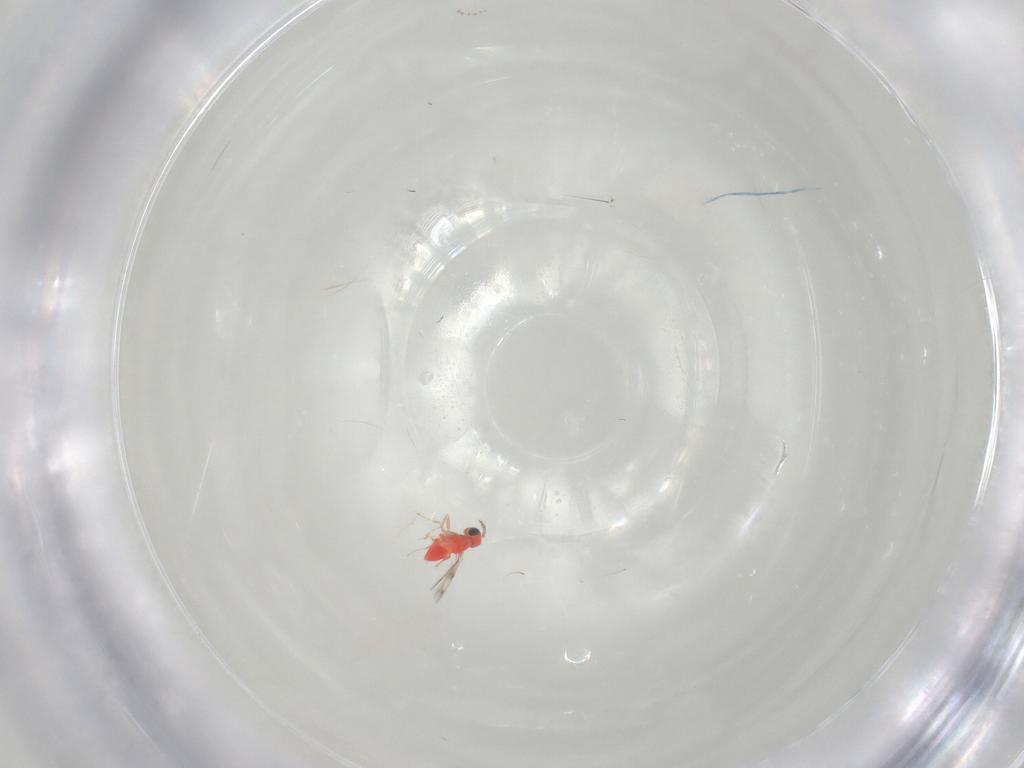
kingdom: Animalia
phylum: Arthropoda
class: Insecta
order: Hymenoptera
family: Trichogrammatidae
